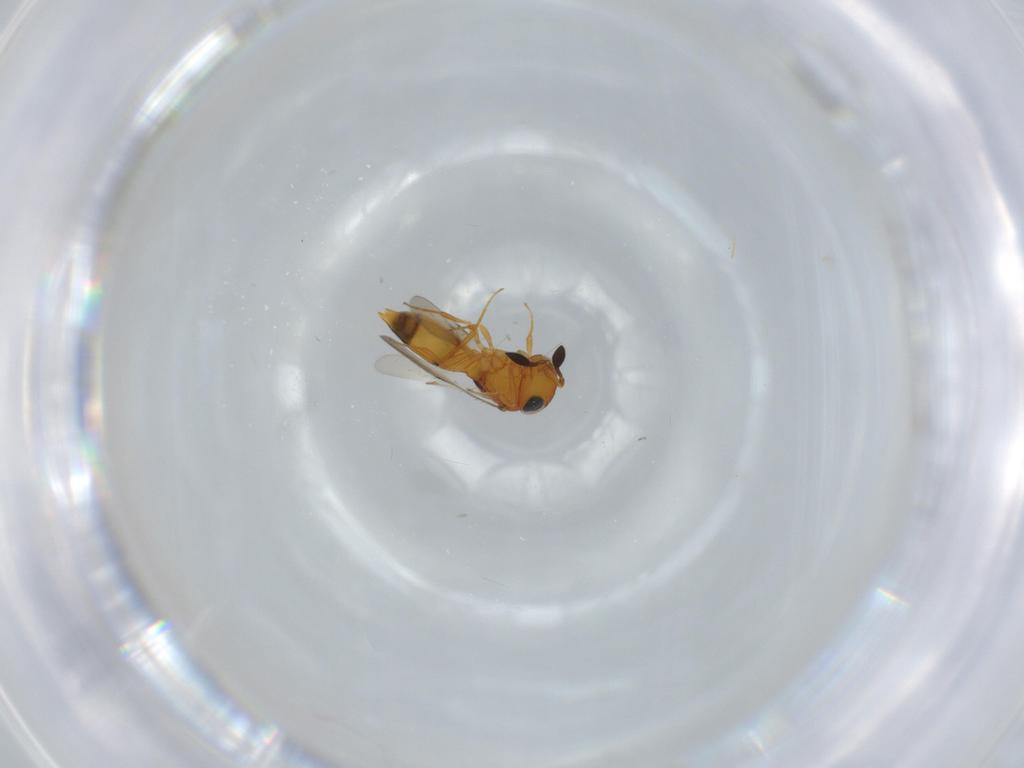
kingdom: Animalia
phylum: Arthropoda
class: Insecta
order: Hymenoptera
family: Scelionidae
